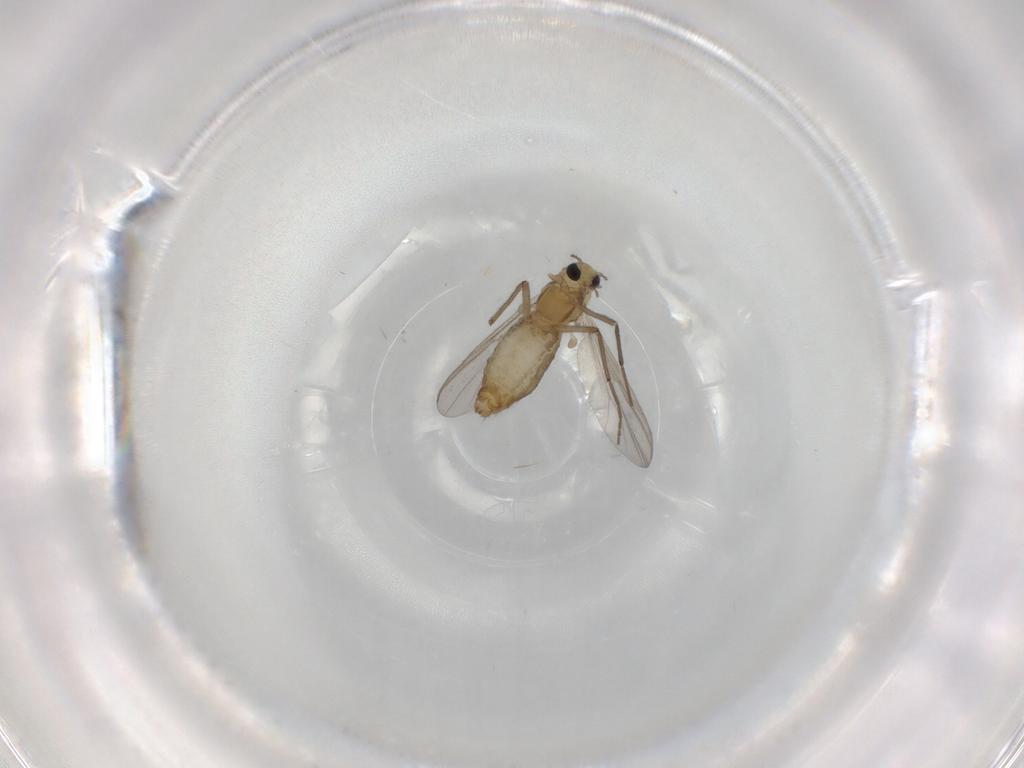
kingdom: Animalia
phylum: Arthropoda
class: Insecta
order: Diptera
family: Chironomidae
